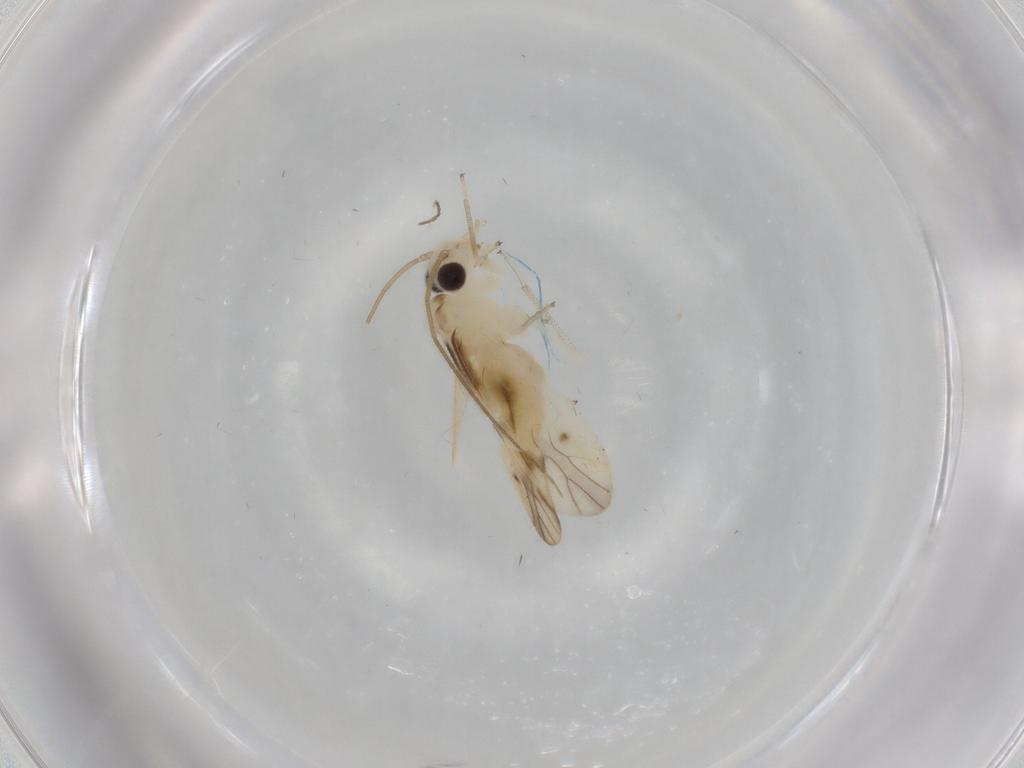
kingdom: Animalia
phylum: Arthropoda
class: Insecta
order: Psocodea
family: Caeciliusidae
